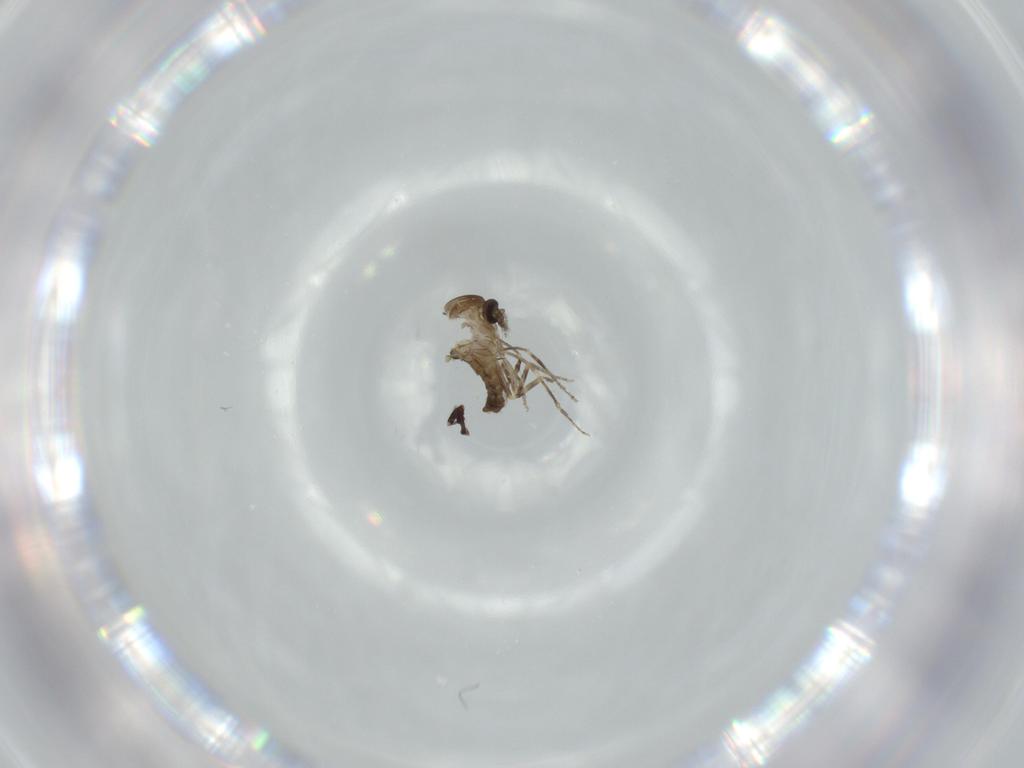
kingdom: Animalia
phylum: Arthropoda
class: Insecta
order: Diptera
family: Ceratopogonidae
